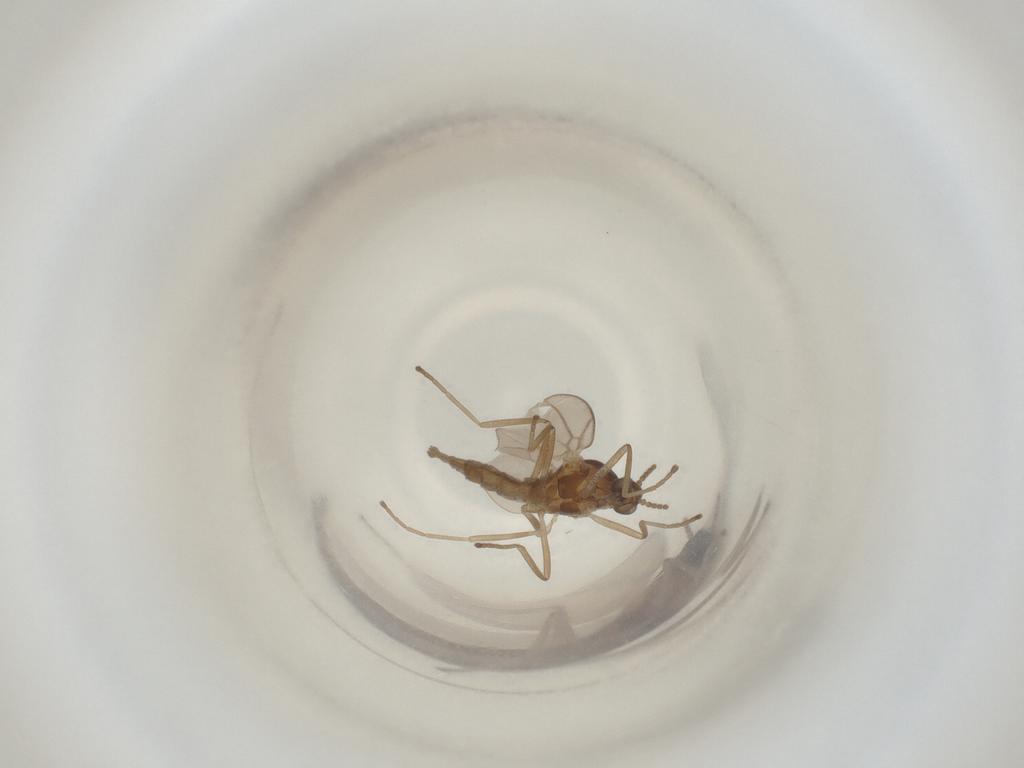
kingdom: Animalia
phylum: Arthropoda
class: Insecta
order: Diptera
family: Cecidomyiidae
